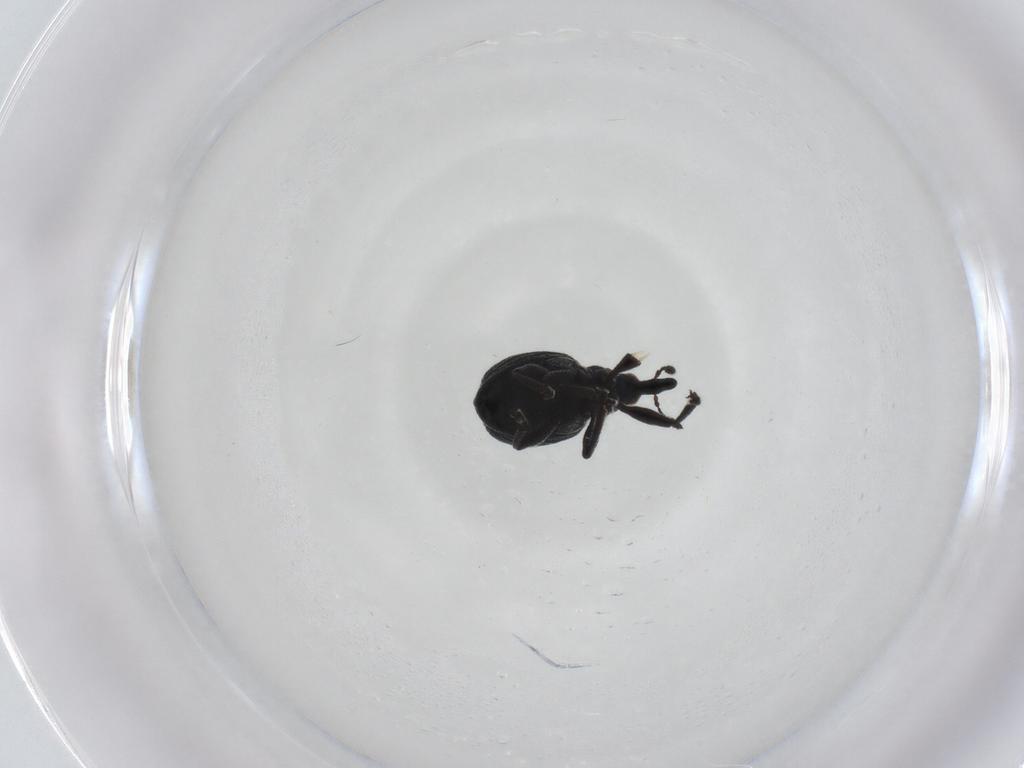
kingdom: Animalia
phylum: Arthropoda
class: Insecta
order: Coleoptera
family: Brentidae
